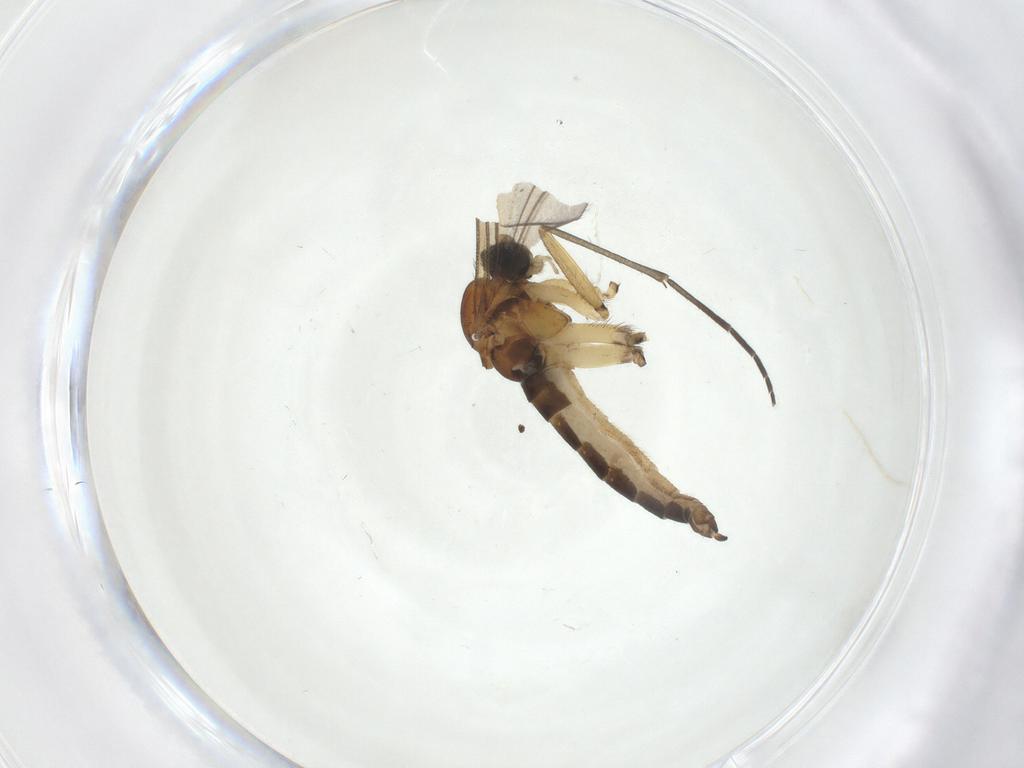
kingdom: Animalia
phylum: Arthropoda
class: Insecta
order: Diptera
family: Sciaridae
